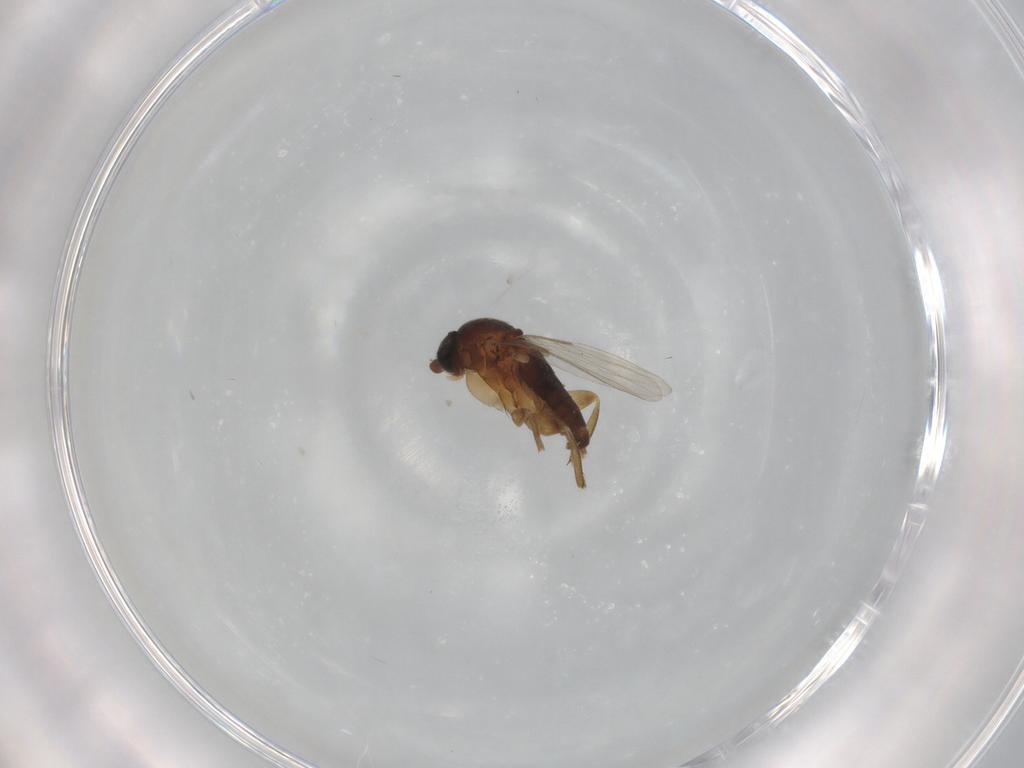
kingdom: Animalia
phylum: Arthropoda
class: Insecta
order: Diptera
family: Phoridae
